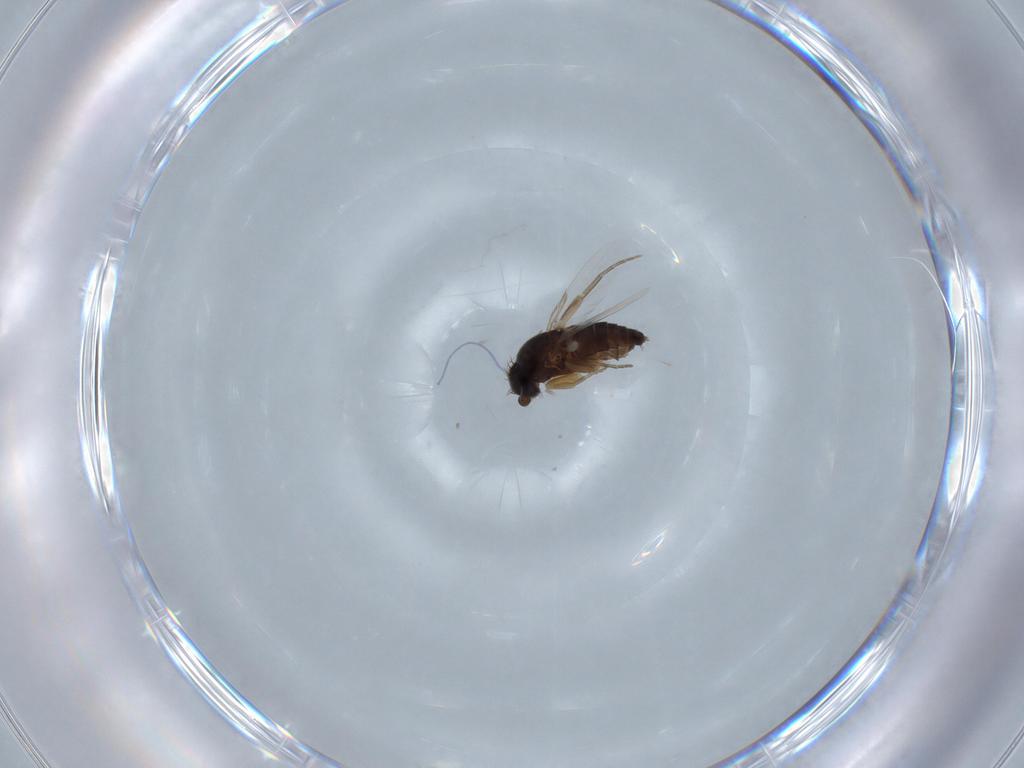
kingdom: Animalia
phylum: Arthropoda
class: Insecta
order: Diptera
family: Phoridae
